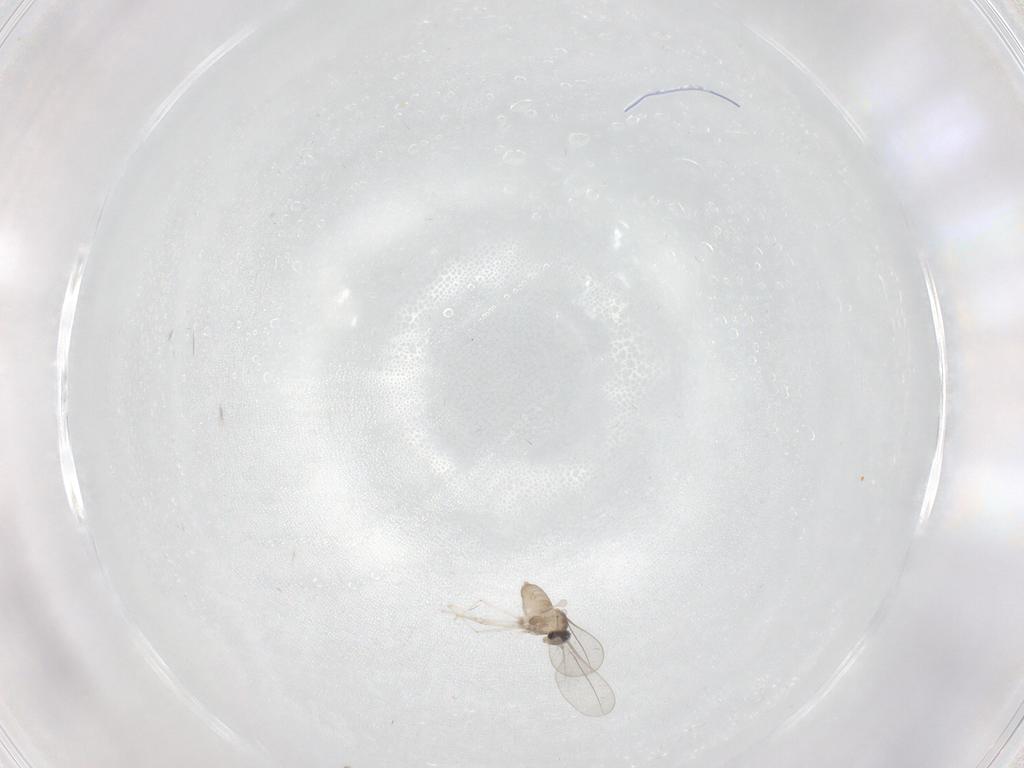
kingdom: Animalia
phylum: Arthropoda
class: Insecta
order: Diptera
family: Cecidomyiidae
